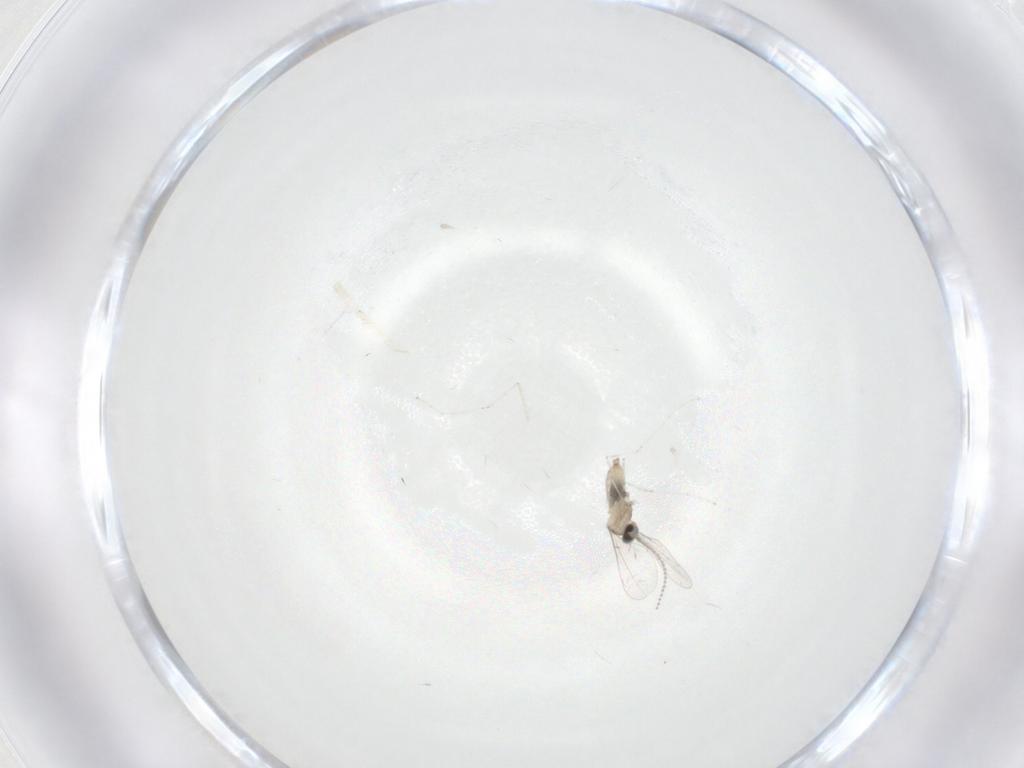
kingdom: Animalia
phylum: Arthropoda
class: Insecta
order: Diptera
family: Cecidomyiidae
